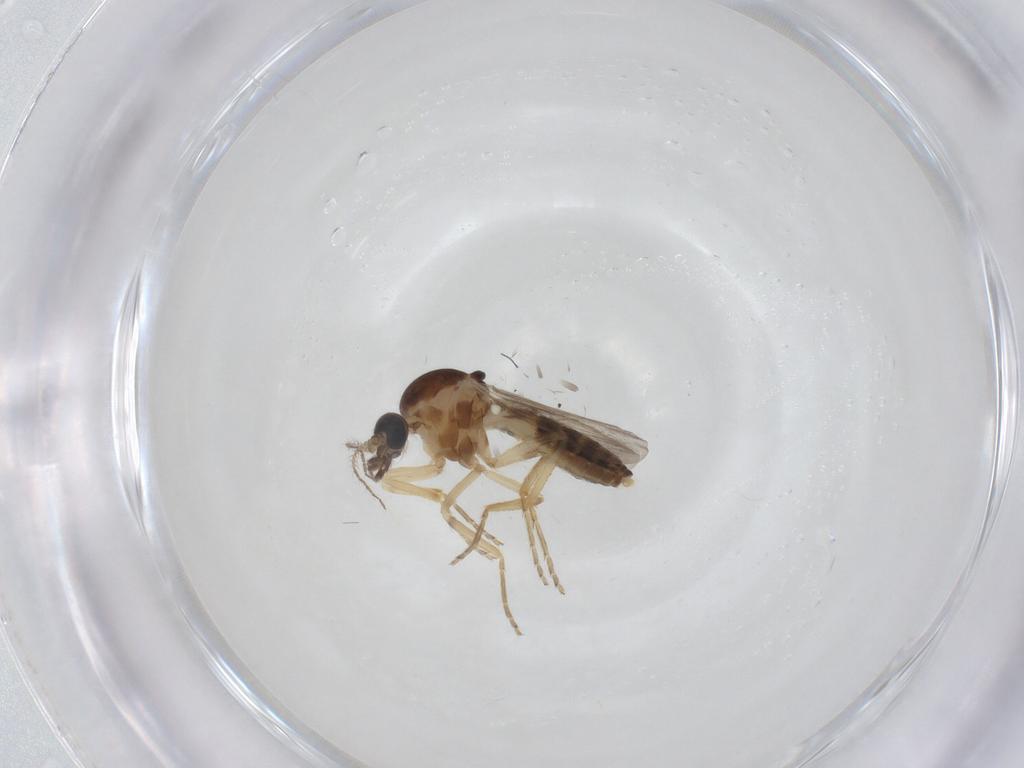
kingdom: Animalia
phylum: Arthropoda
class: Insecta
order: Diptera
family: Ceratopogonidae
